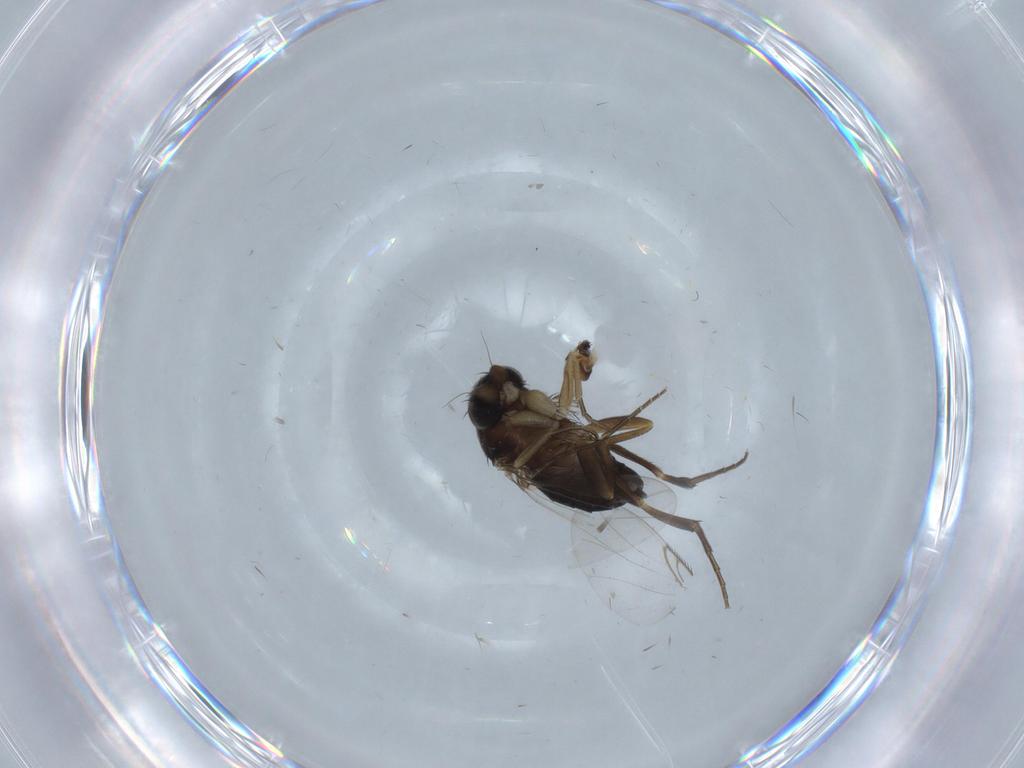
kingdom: Animalia
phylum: Arthropoda
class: Insecta
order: Diptera
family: Phoridae
